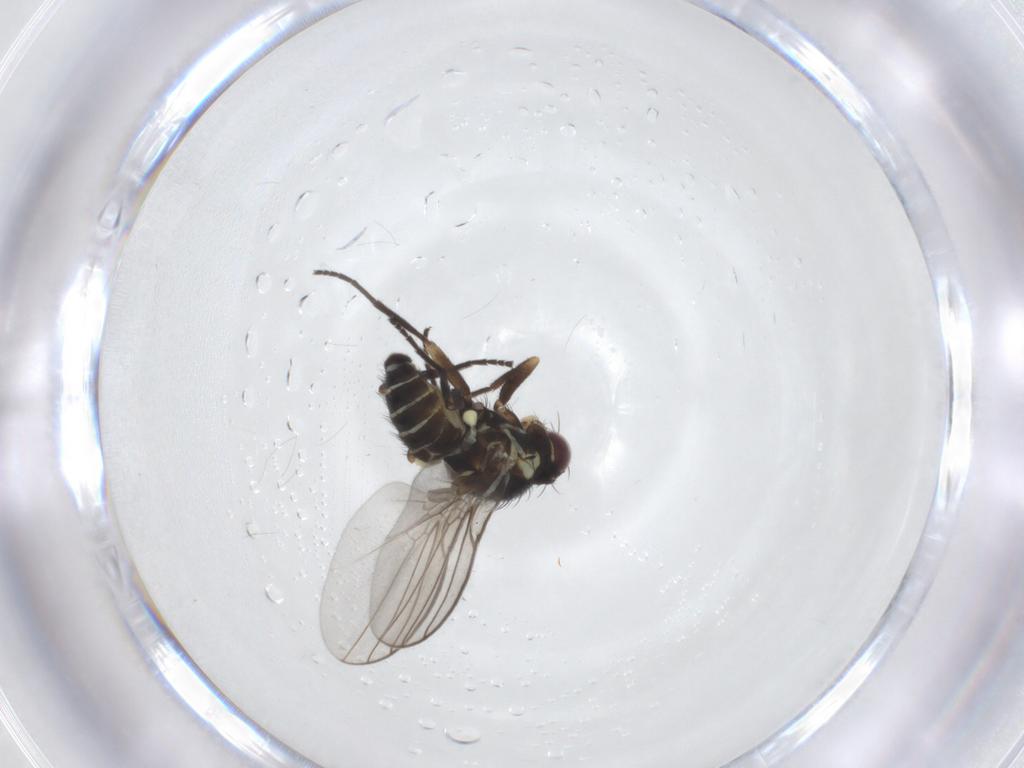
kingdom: Animalia
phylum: Arthropoda
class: Insecta
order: Diptera
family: Agromyzidae
